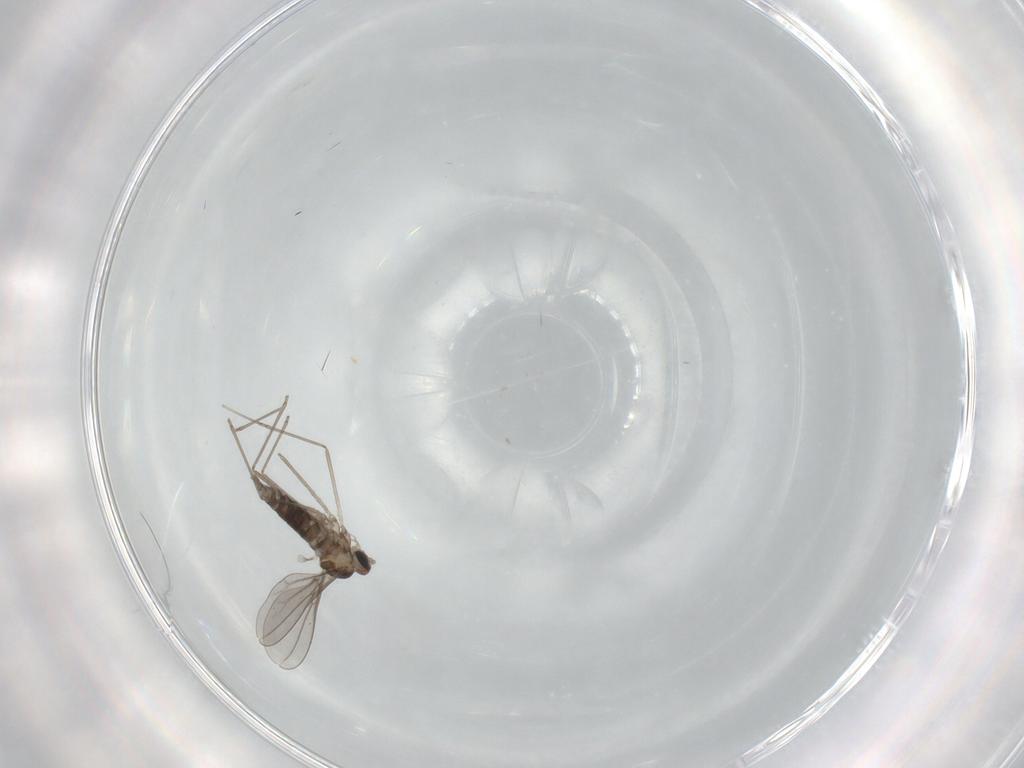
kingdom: Animalia
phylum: Arthropoda
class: Insecta
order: Diptera
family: Cecidomyiidae
